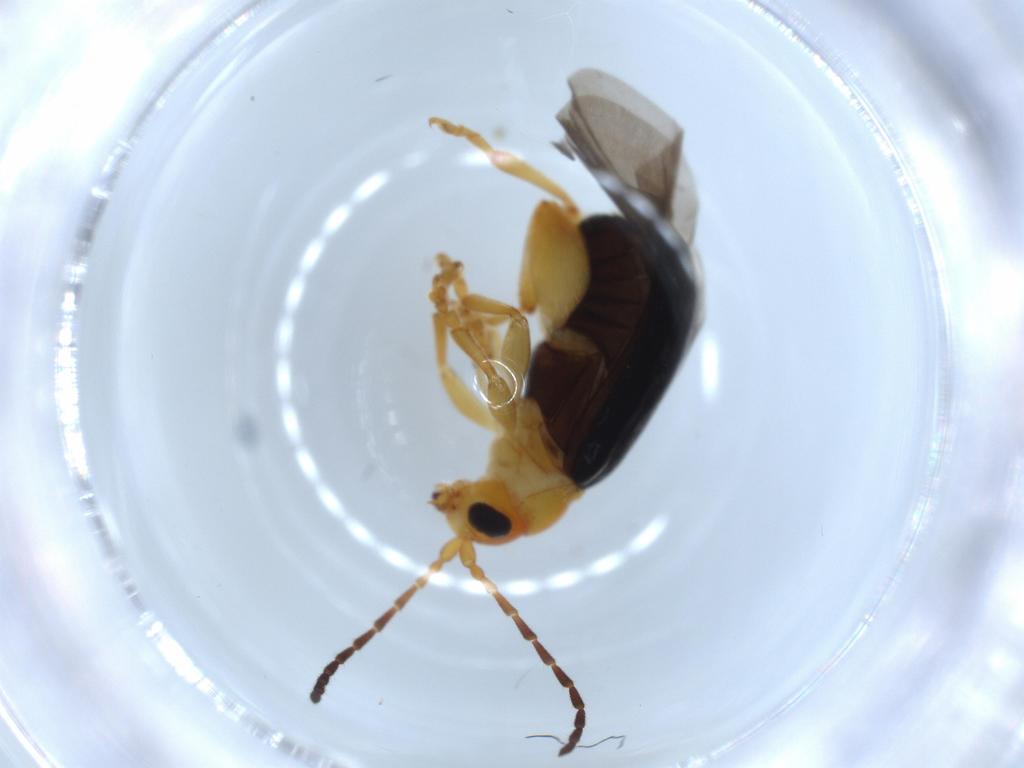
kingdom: Animalia
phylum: Arthropoda
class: Insecta
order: Coleoptera
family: Chrysomelidae
